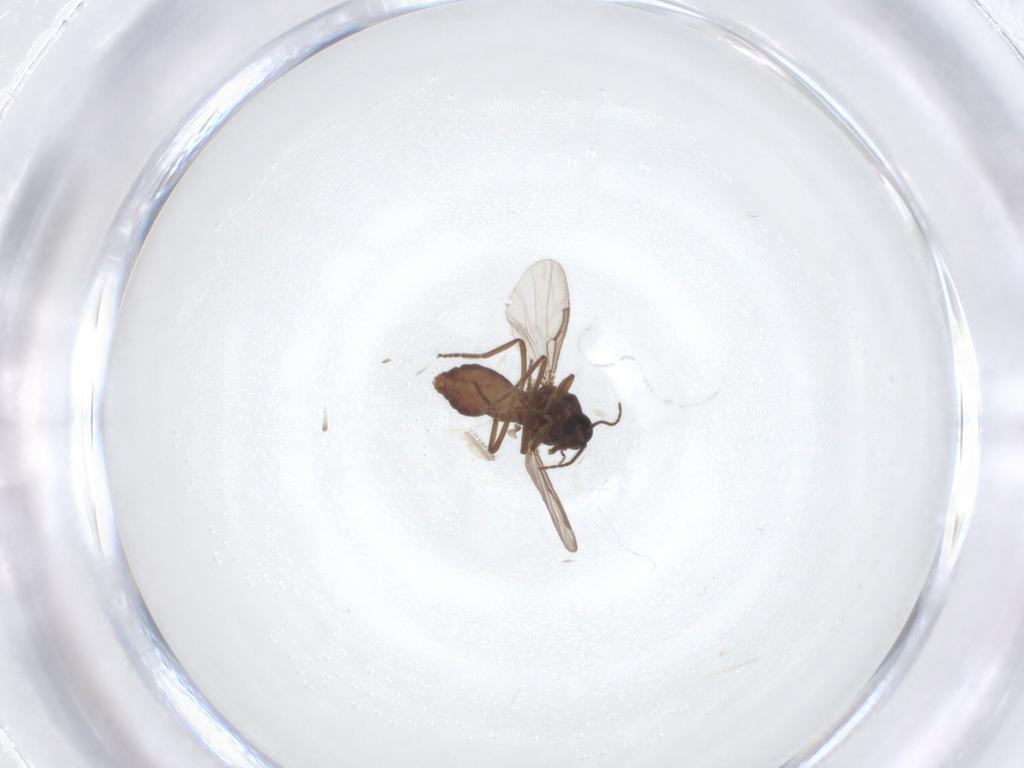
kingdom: Animalia
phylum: Arthropoda
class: Insecta
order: Diptera
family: Ceratopogonidae
